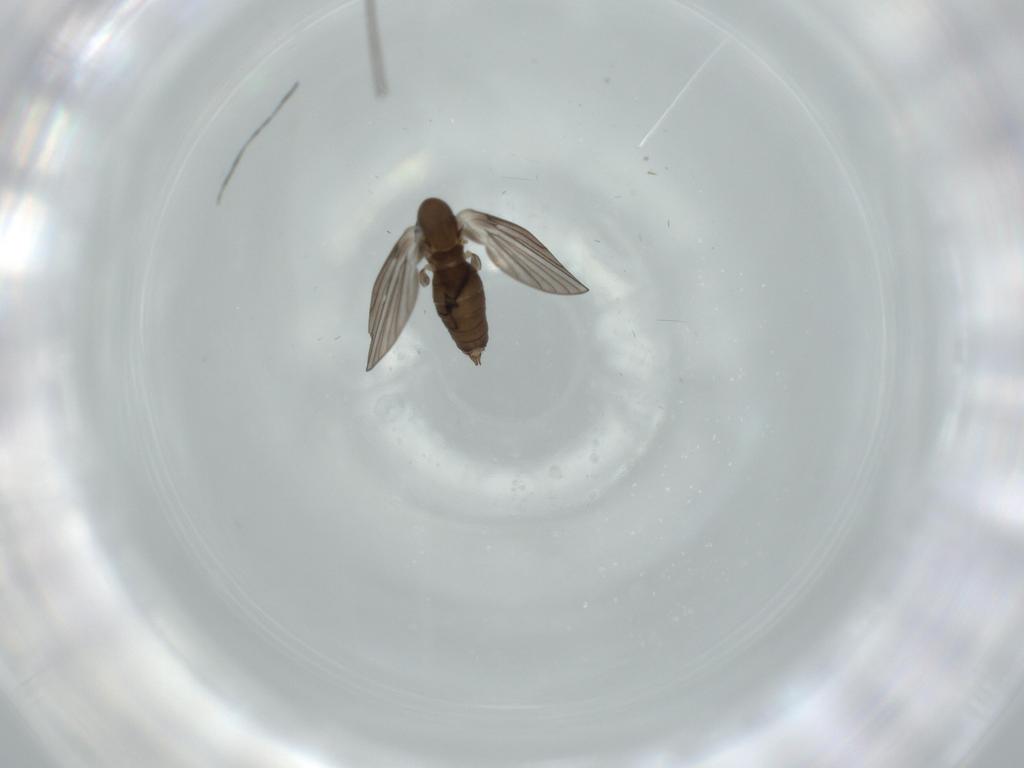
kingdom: Animalia
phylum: Arthropoda
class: Insecta
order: Diptera
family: Psychodidae
